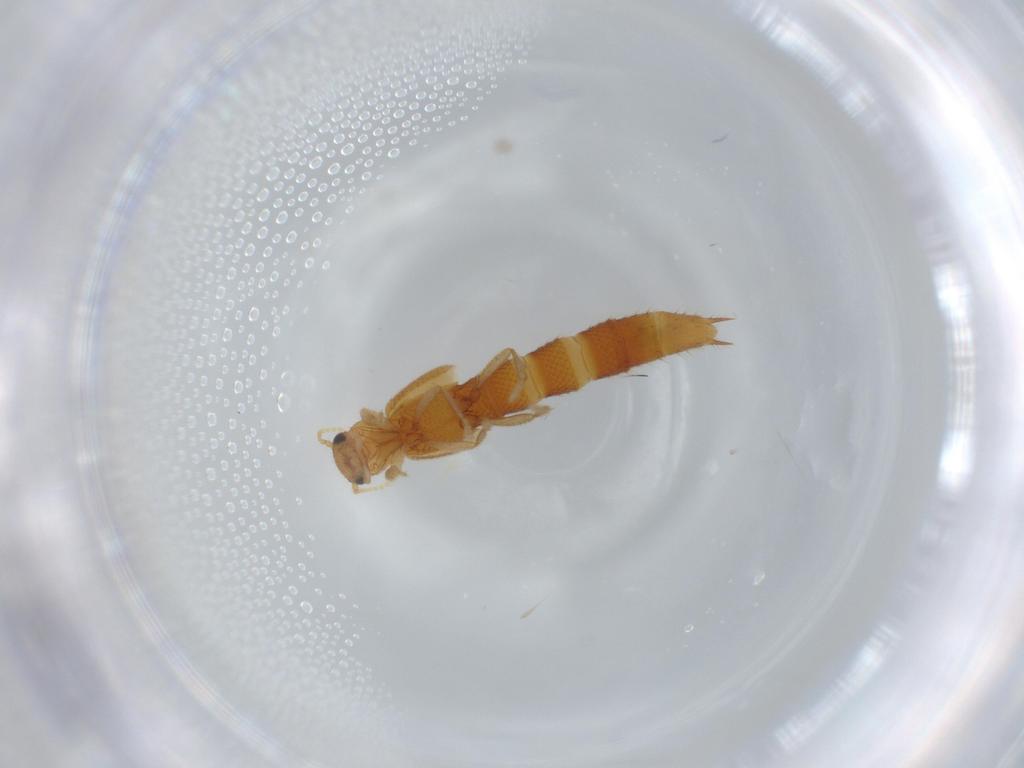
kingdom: Animalia
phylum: Arthropoda
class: Insecta
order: Coleoptera
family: Staphylinidae
